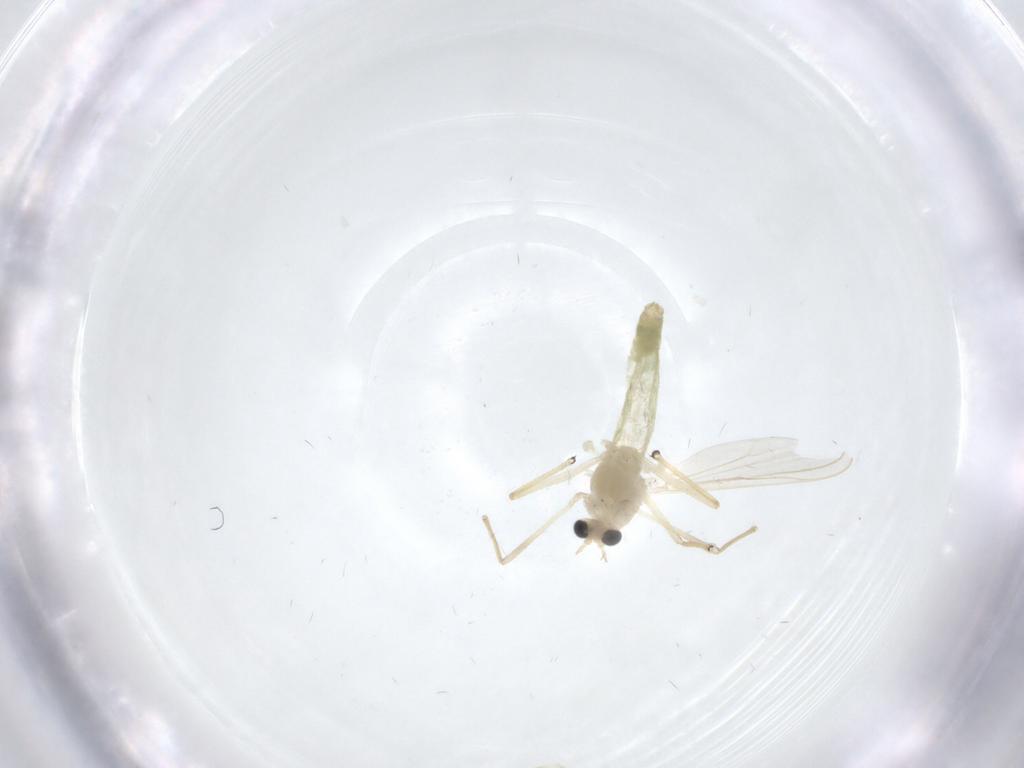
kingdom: Animalia
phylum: Arthropoda
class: Insecta
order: Diptera
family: Chironomidae
